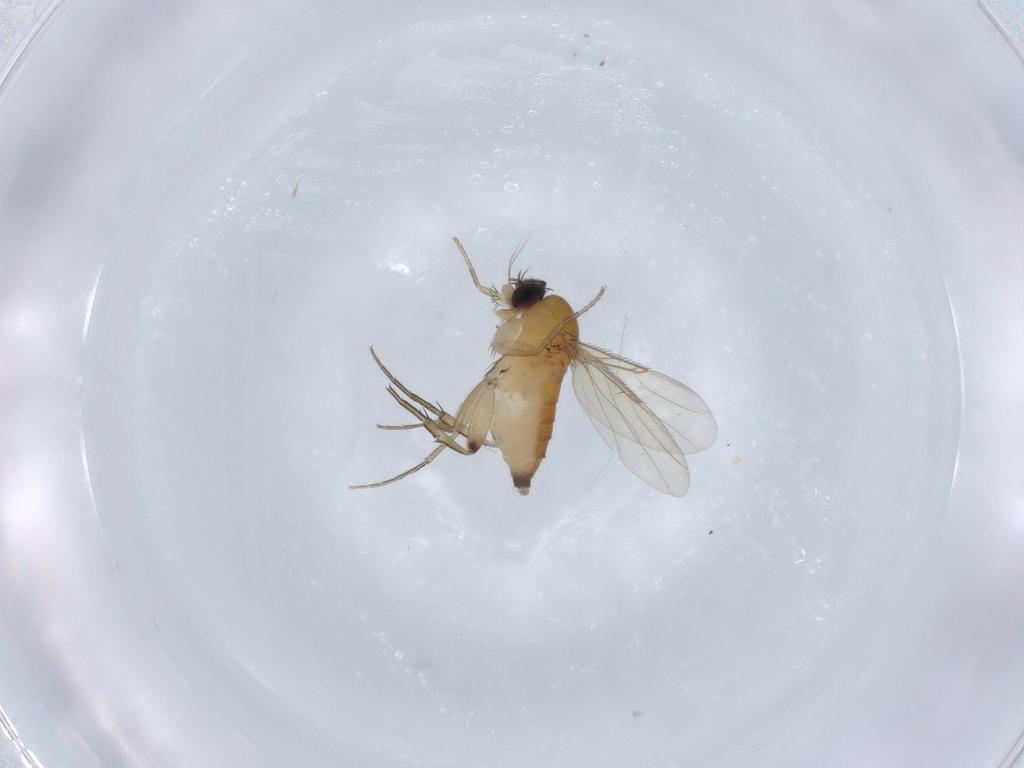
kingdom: Animalia
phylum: Arthropoda
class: Insecta
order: Diptera
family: Phoridae
